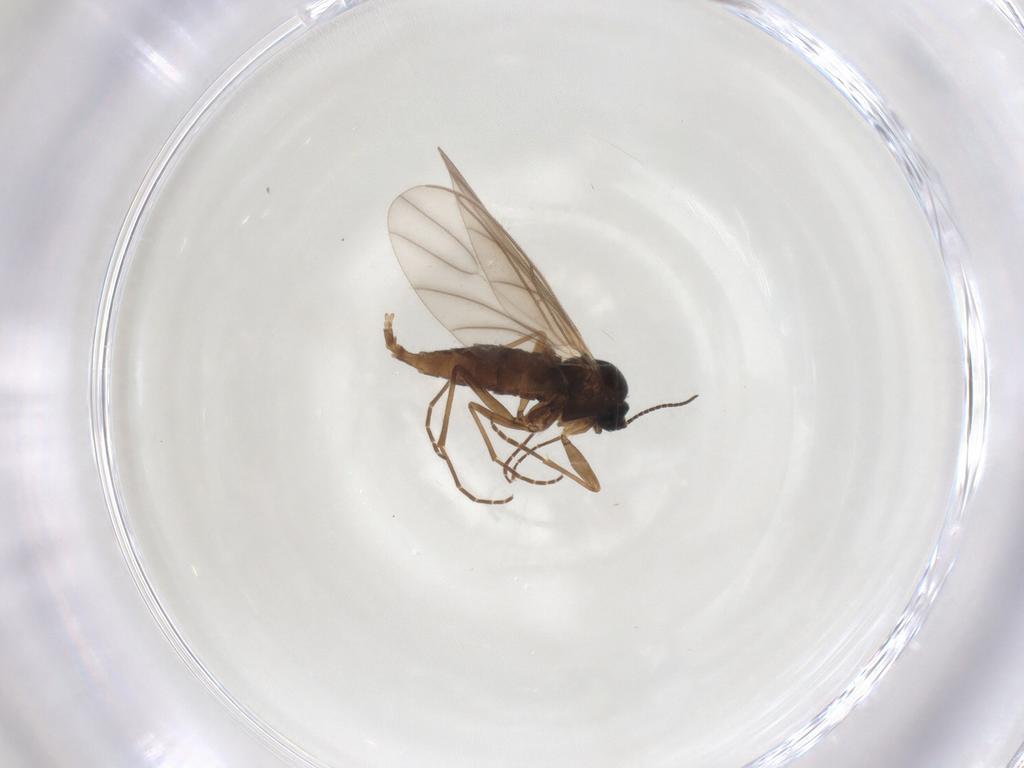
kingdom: Animalia
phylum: Arthropoda
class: Insecta
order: Diptera
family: Sciaridae
